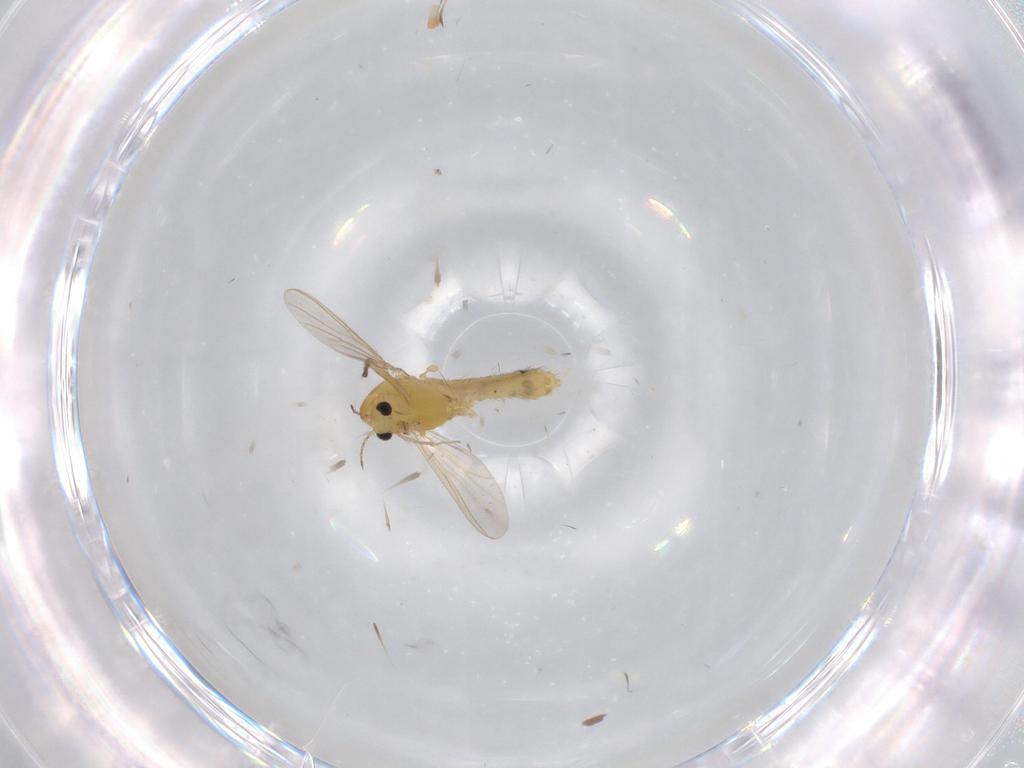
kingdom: Animalia
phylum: Arthropoda
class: Insecta
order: Diptera
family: Chironomidae
